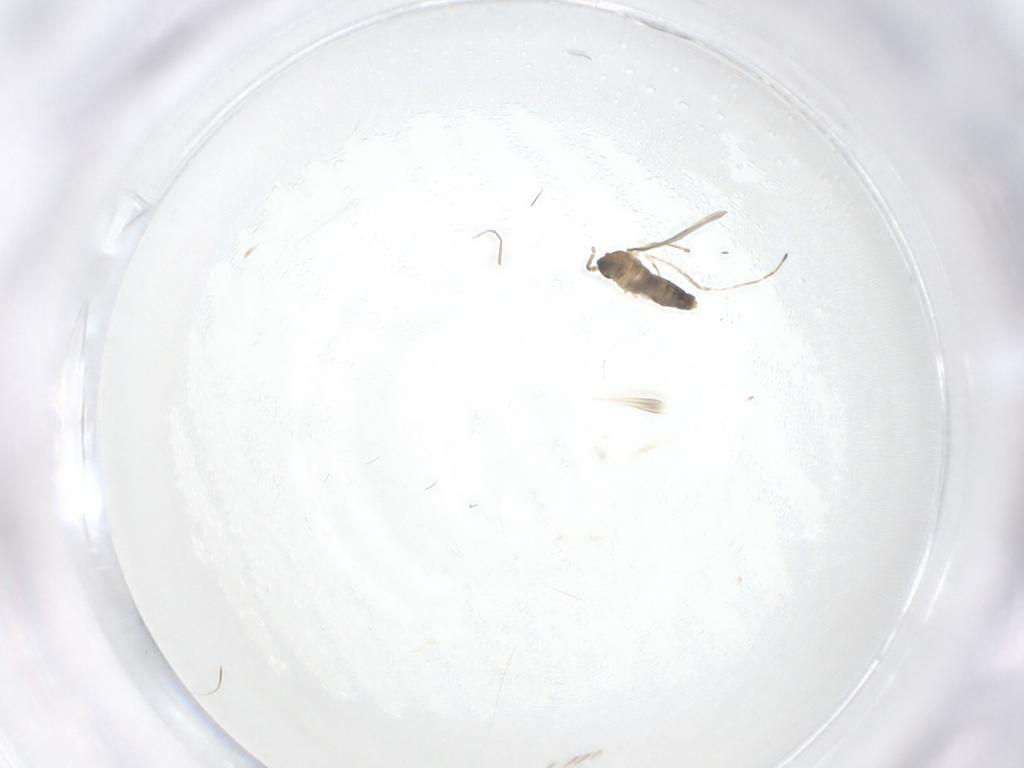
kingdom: Animalia
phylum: Arthropoda
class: Insecta
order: Diptera
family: Cecidomyiidae
